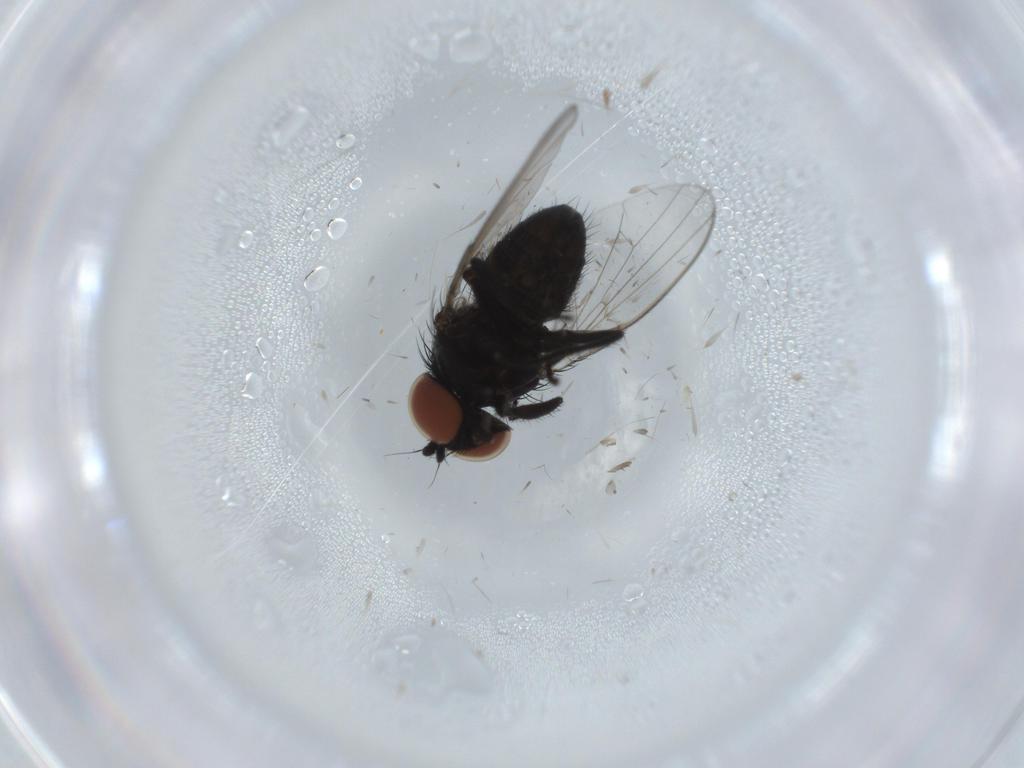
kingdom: Animalia
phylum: Arthropoda
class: Insecta
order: Diptera
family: Milichiidae
